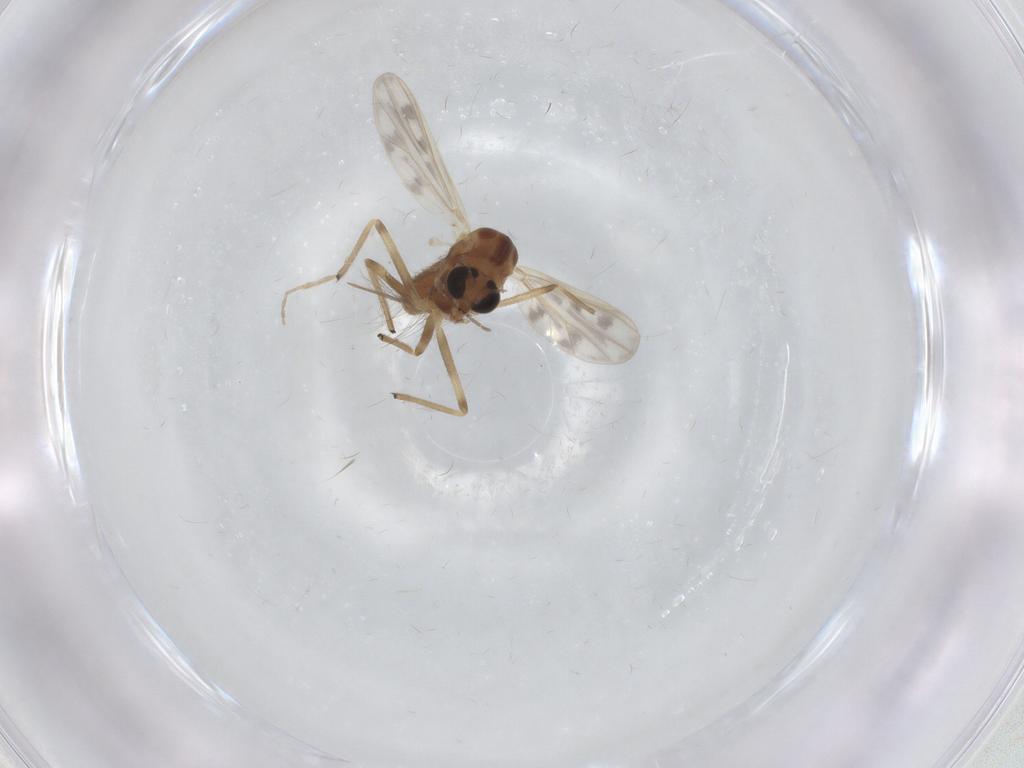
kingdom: Animalia
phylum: Arthropoda
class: Insecta
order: Diptera
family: Chironomidae
